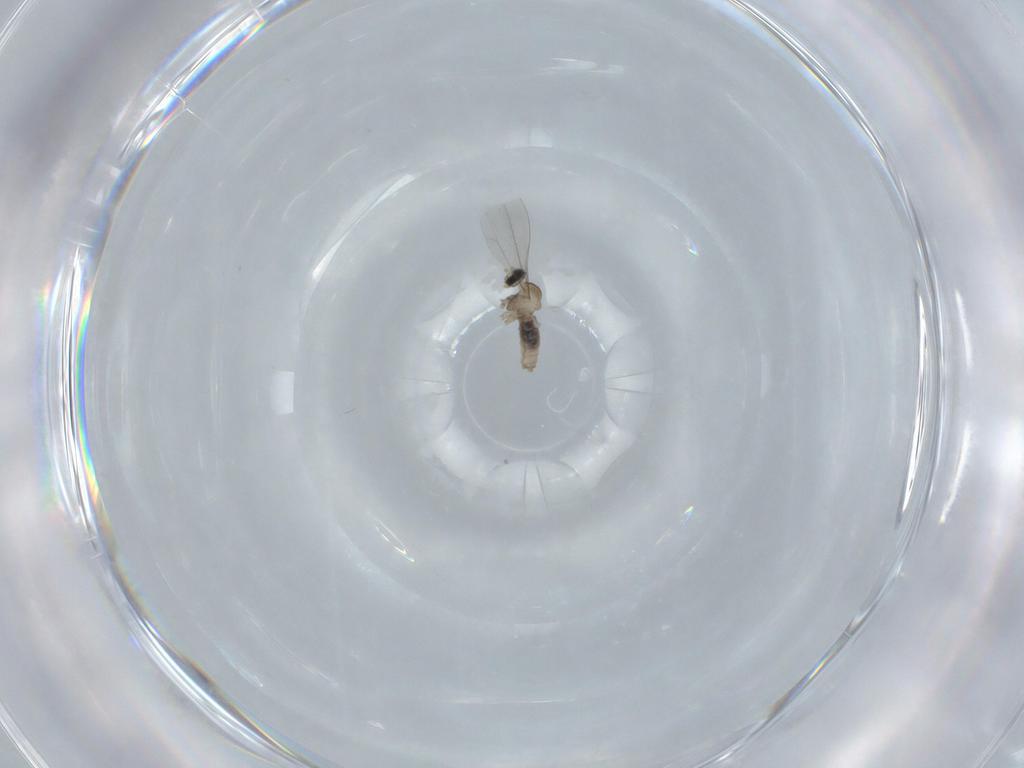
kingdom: Animalia
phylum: Arthropoda
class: Insecta
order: Diptera
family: Cecidomyiidae
